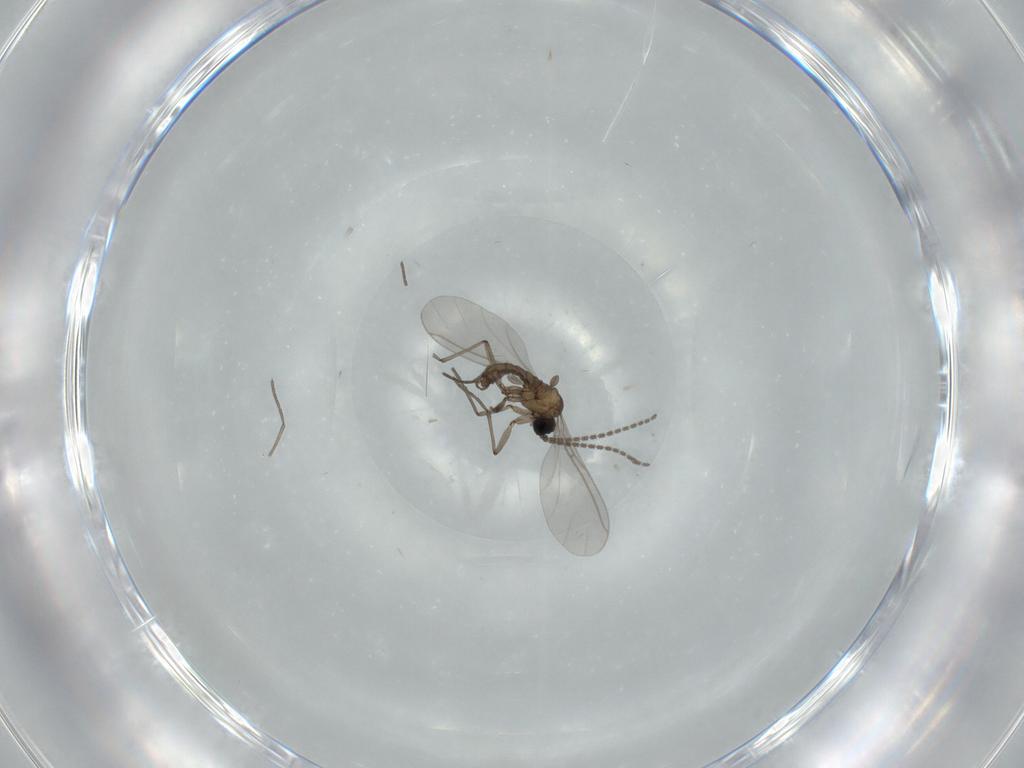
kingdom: Animalia
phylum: Arthropoda
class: Insecta
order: Diptera
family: Sciaridae
